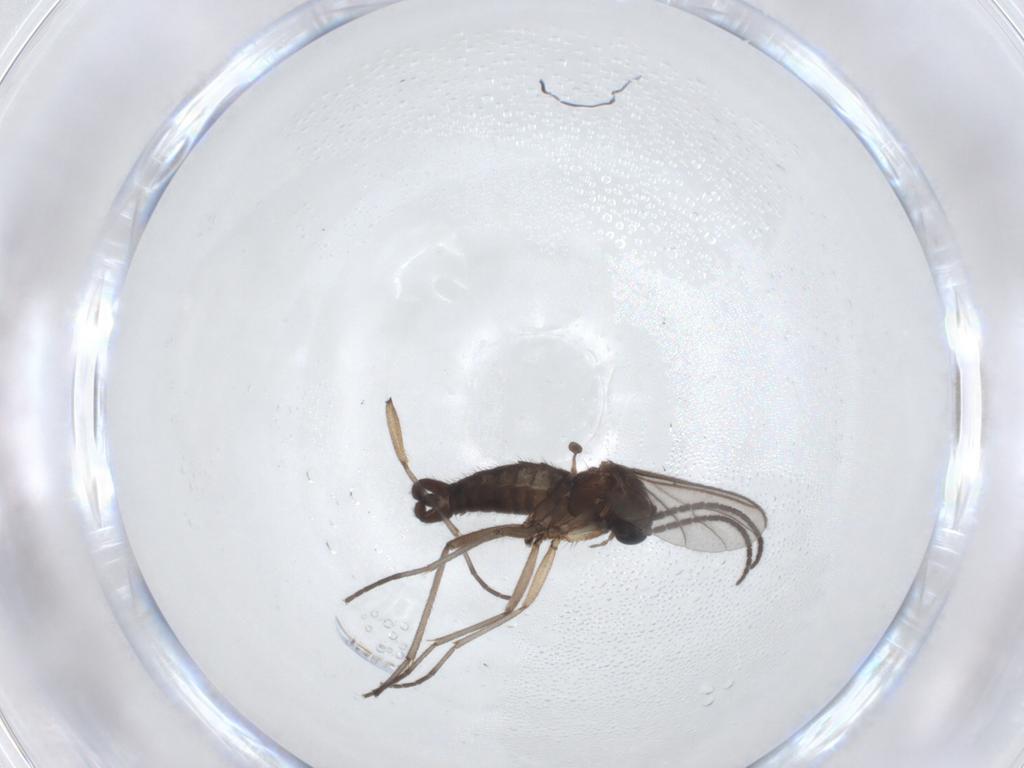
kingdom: Animalia
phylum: Arthropoda
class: Insecta
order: Diptera
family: Sciaridae
